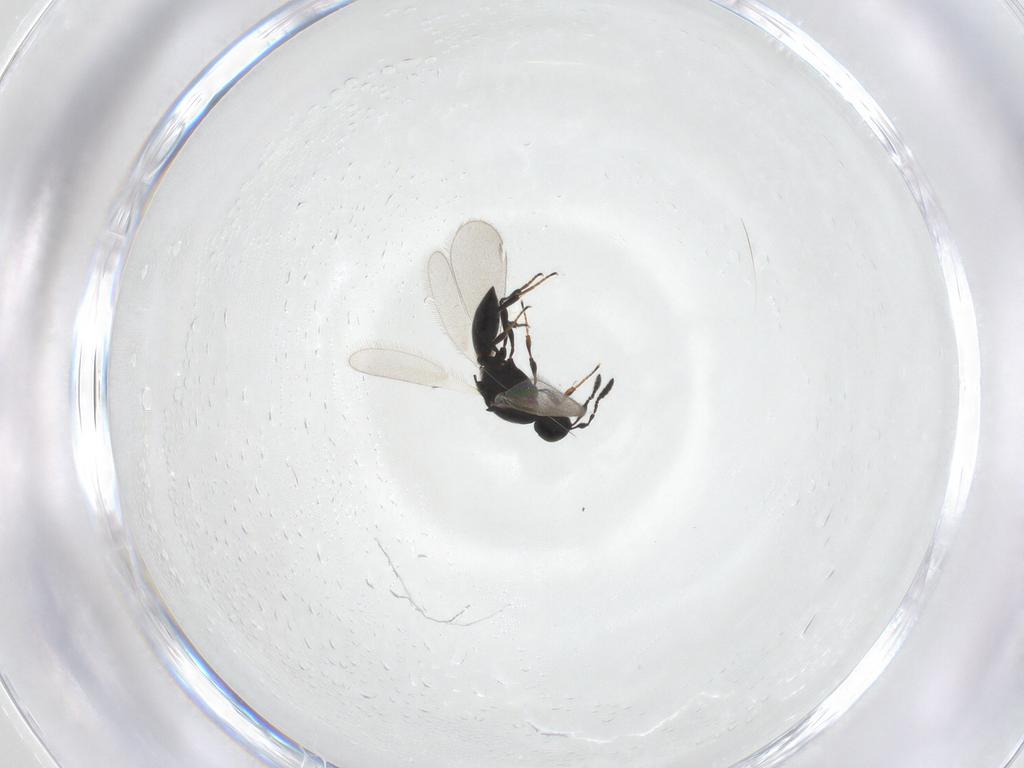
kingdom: Animalia
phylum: Arthropoda
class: Insecta
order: Hymenoptera
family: Platygastridae
